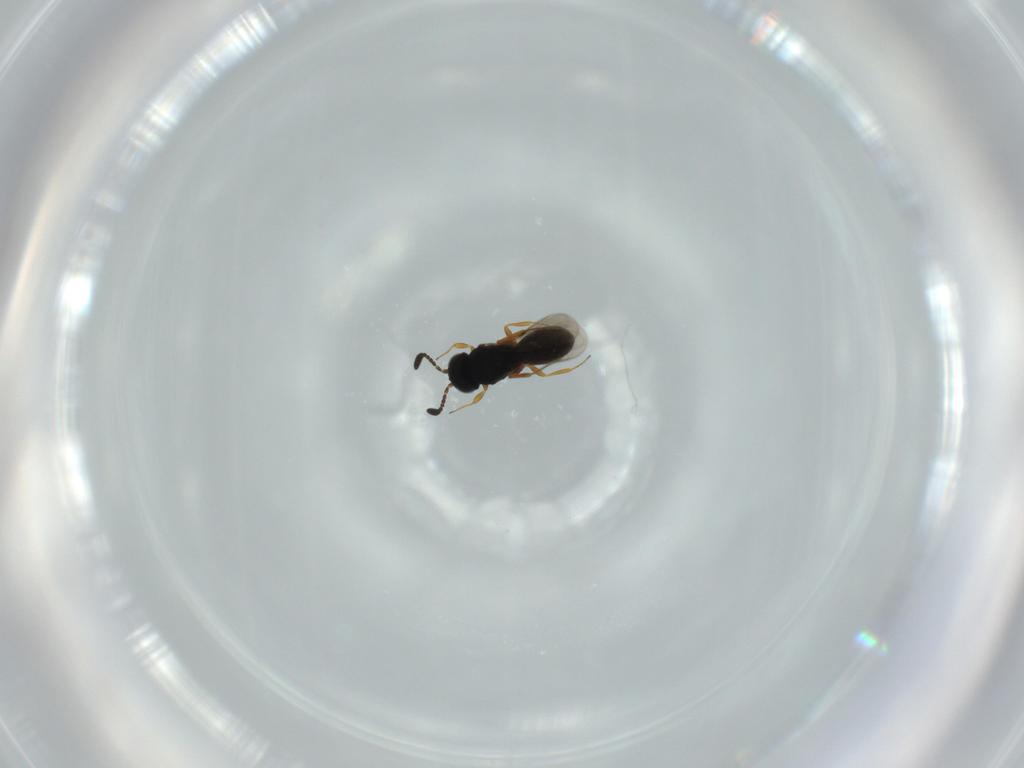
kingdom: Animalia
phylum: Arthropoda
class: Insecta
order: Hymenoptera
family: Scelionidae
